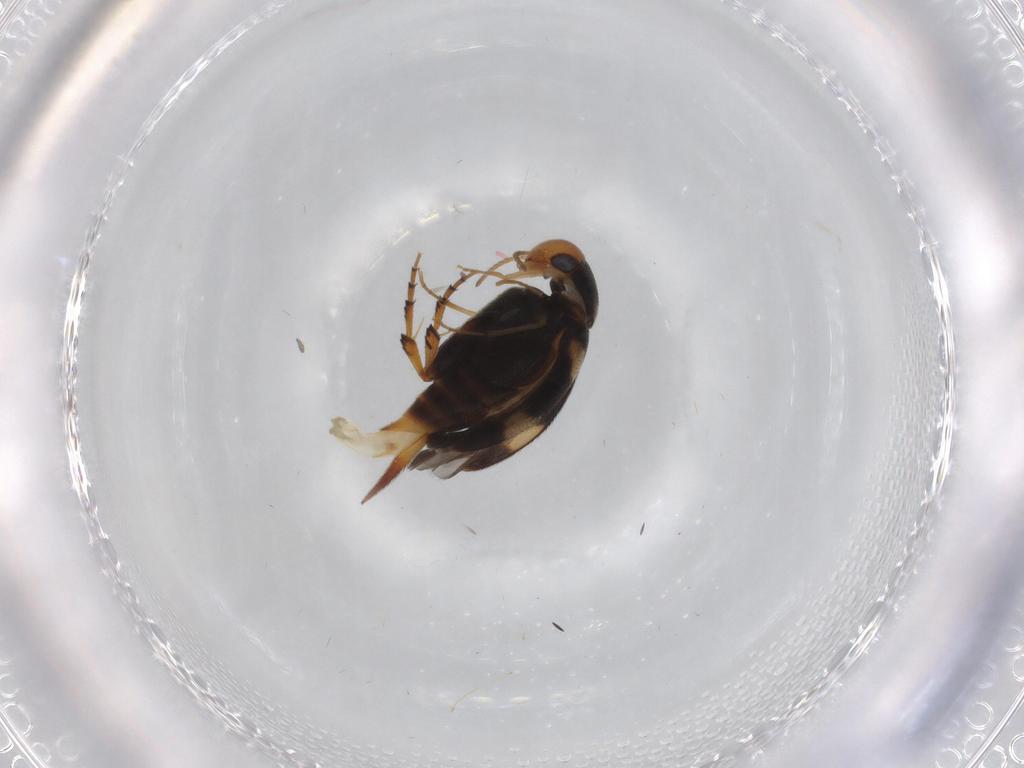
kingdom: Animalia
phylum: Arthropoda
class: Insecta
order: Coleoptera
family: Mordellidae
